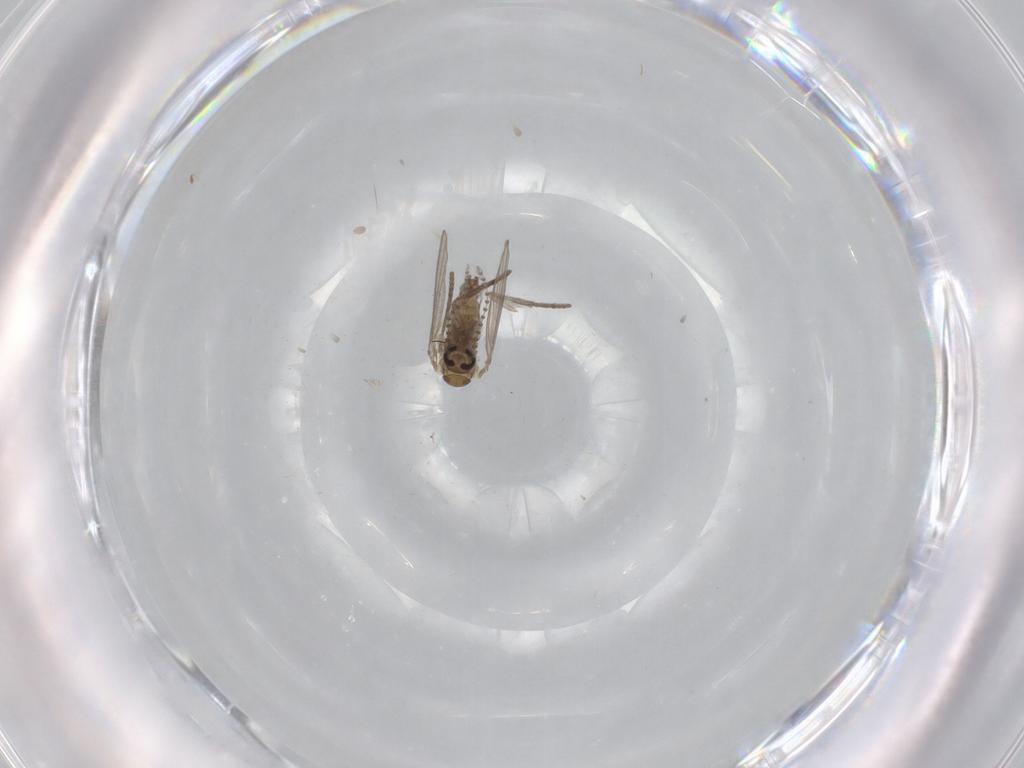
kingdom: Animalia
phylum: Arthropoda
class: Insecta
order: Diptera
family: Psychodidae
